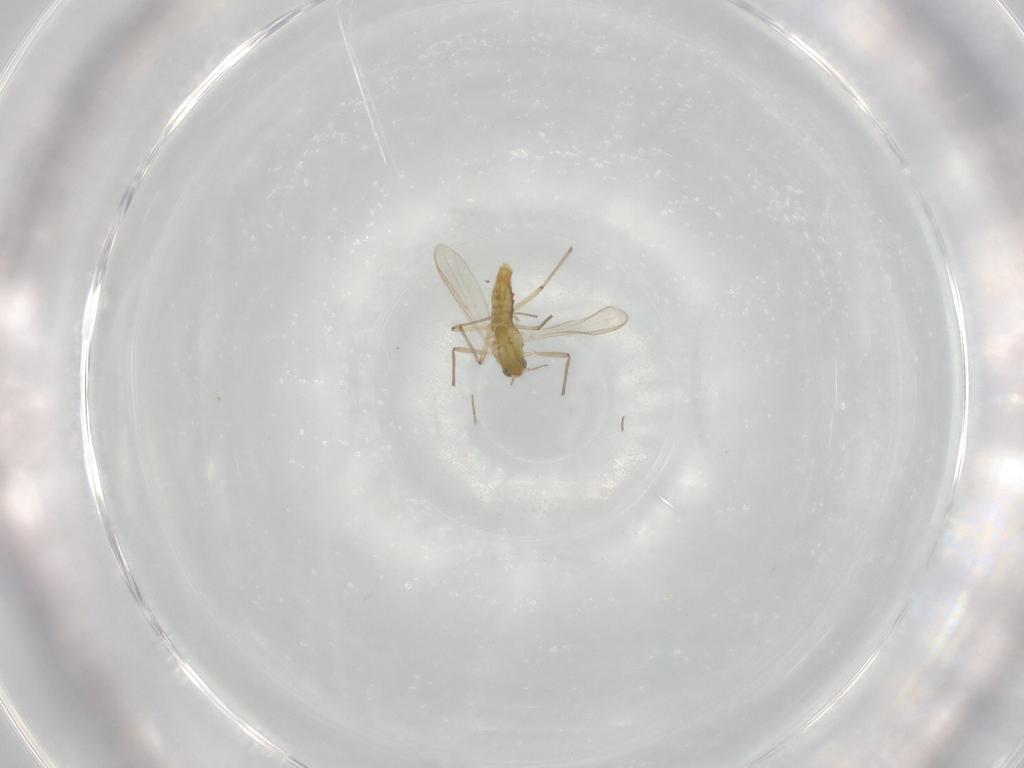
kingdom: Animalia
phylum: Arthropoda
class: Insecta
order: Diptera
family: Chironomidae
